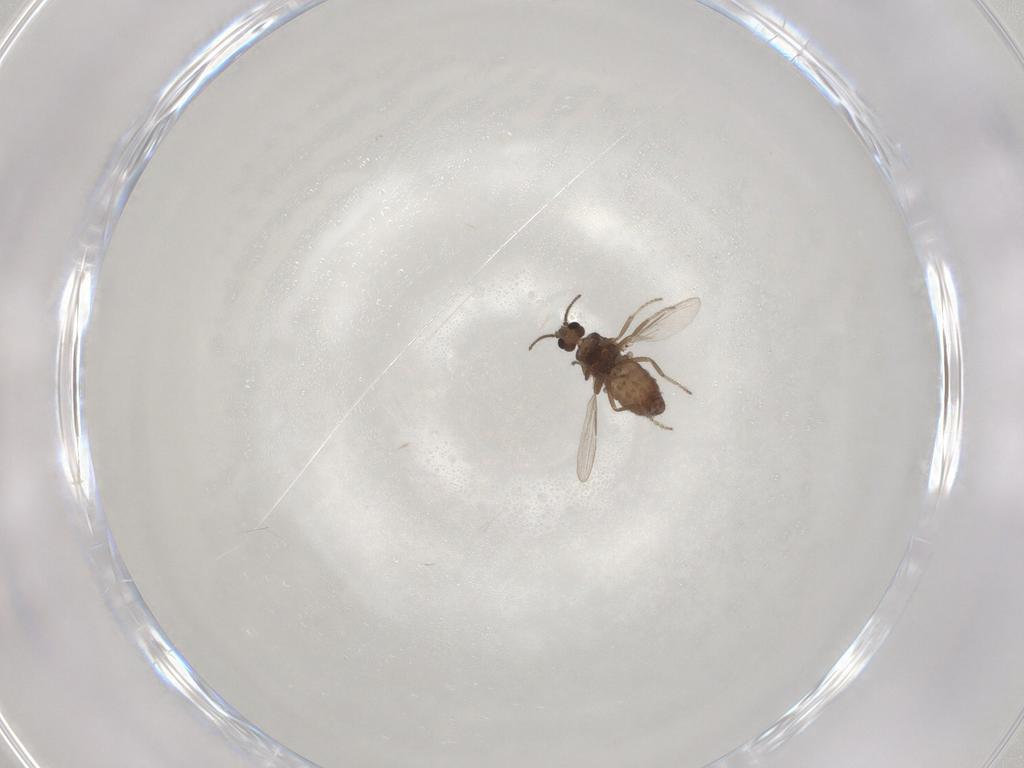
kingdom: Animalia
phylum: Arthropoda
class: Insecta
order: Diptera
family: Ceratopogonidae
